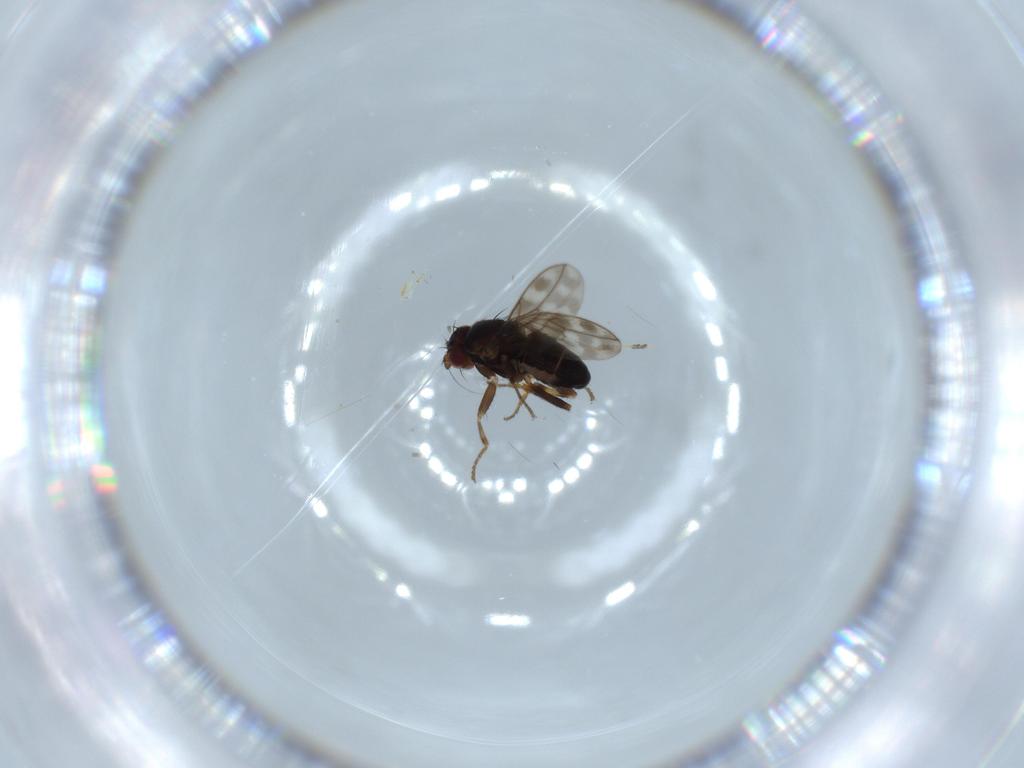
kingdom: Animalia
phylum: Arthropoda
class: Insecta
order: Diptera
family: Sphaeroceridae
